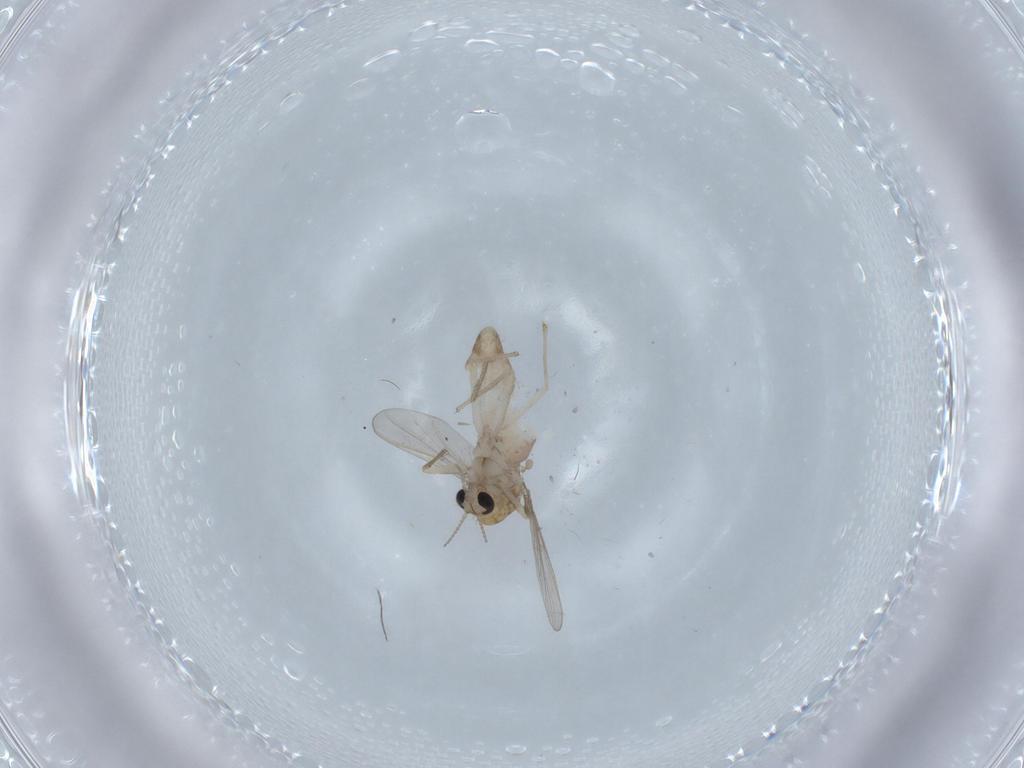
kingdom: Animalia
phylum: Arthropoda
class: Insecta
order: Diptera
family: Chironomidae
